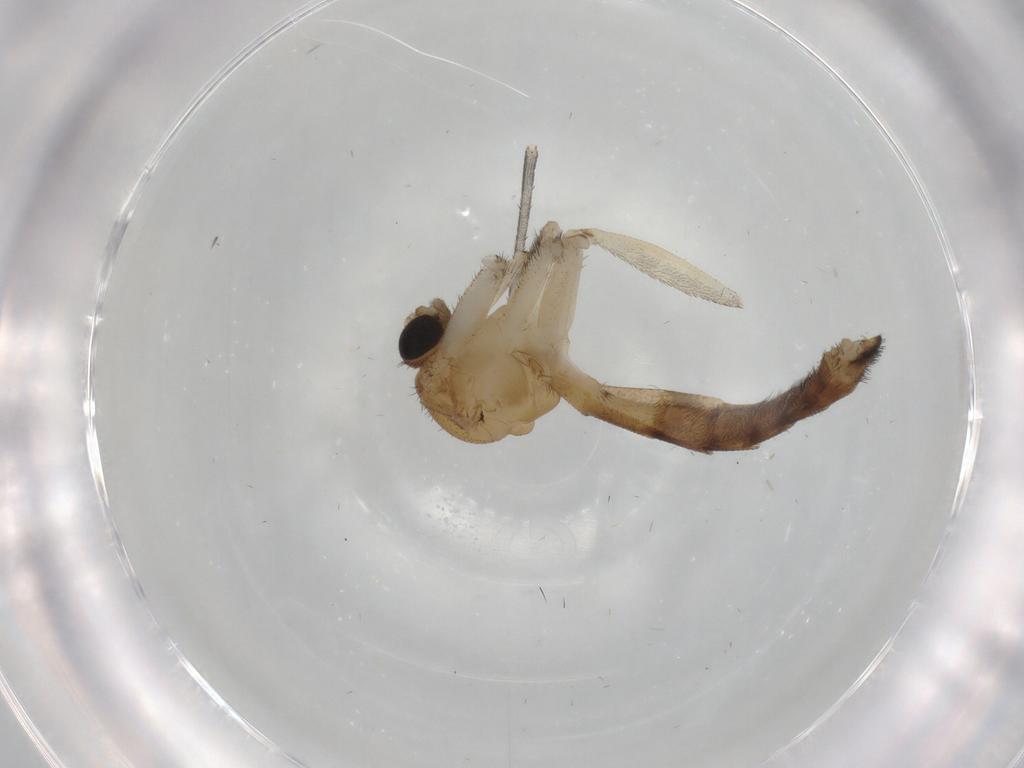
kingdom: Animalia
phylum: Arthropoda
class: Insecta
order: Diptera
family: Keroplatidae
